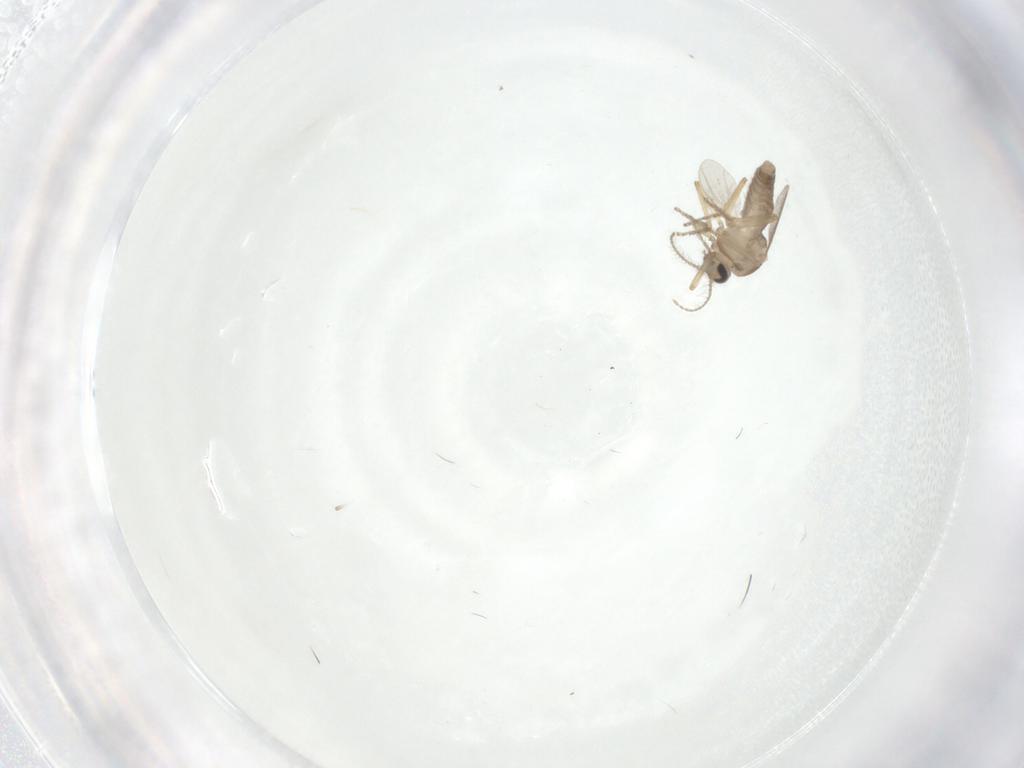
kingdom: Animalia
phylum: Arthropoda
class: Insecta
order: Diptera
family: Ceratopogonidae
